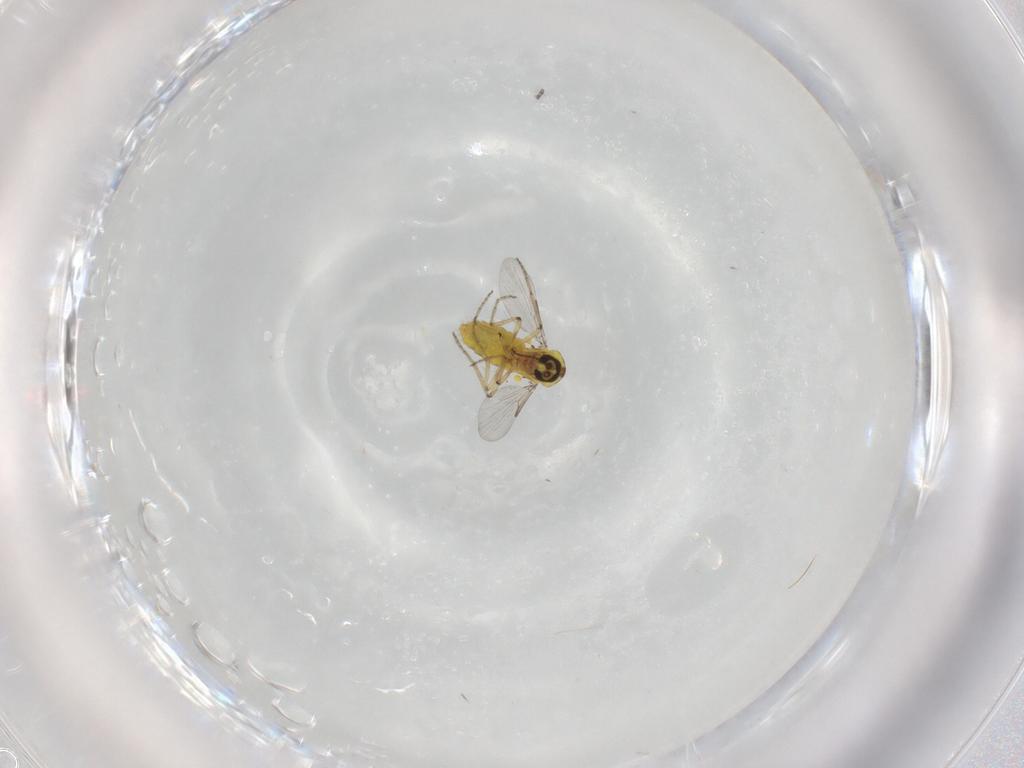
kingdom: Animalia
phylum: Arthropoda
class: Insecta
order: Diptera
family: Ceratopogonidae
